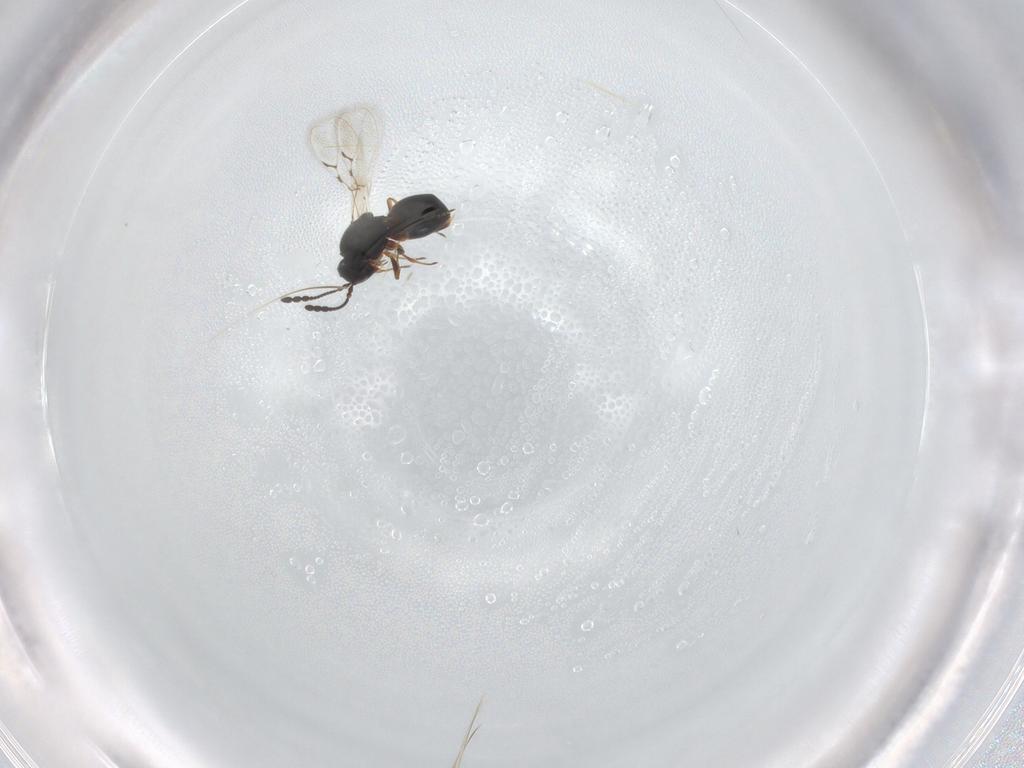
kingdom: Animalia
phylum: Arthropoda
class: Insecta
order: Hymenoptera
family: Figitidae
